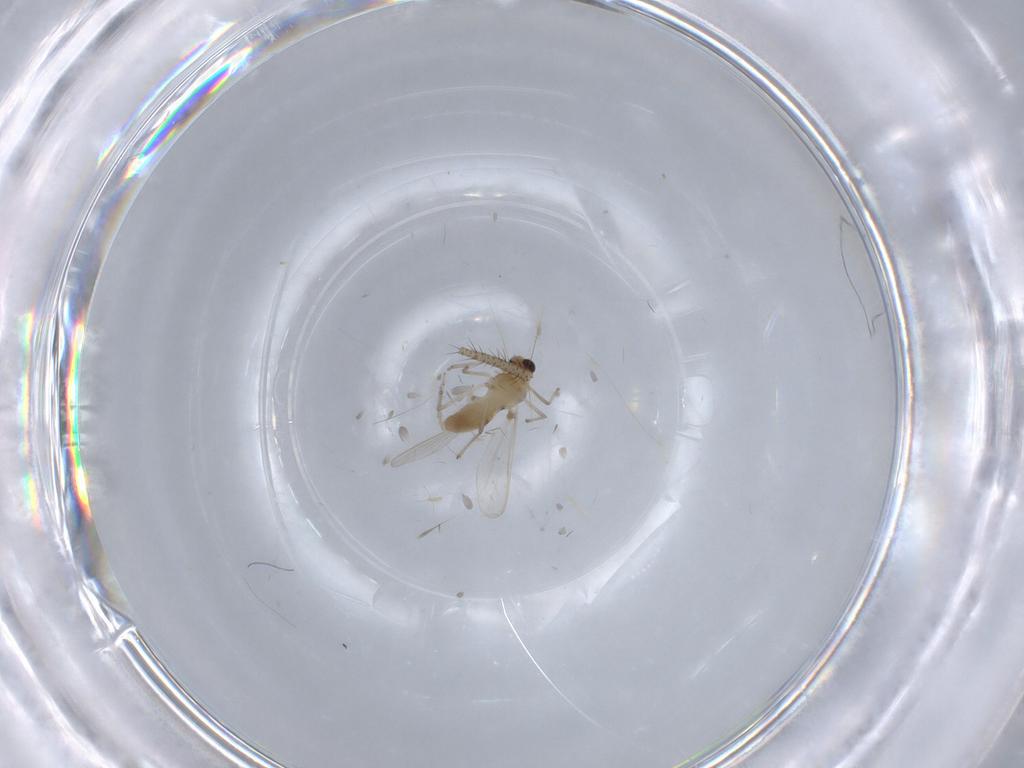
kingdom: Animalia
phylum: Arthropoda
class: Insecta
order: Diptera
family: Chironomidae
